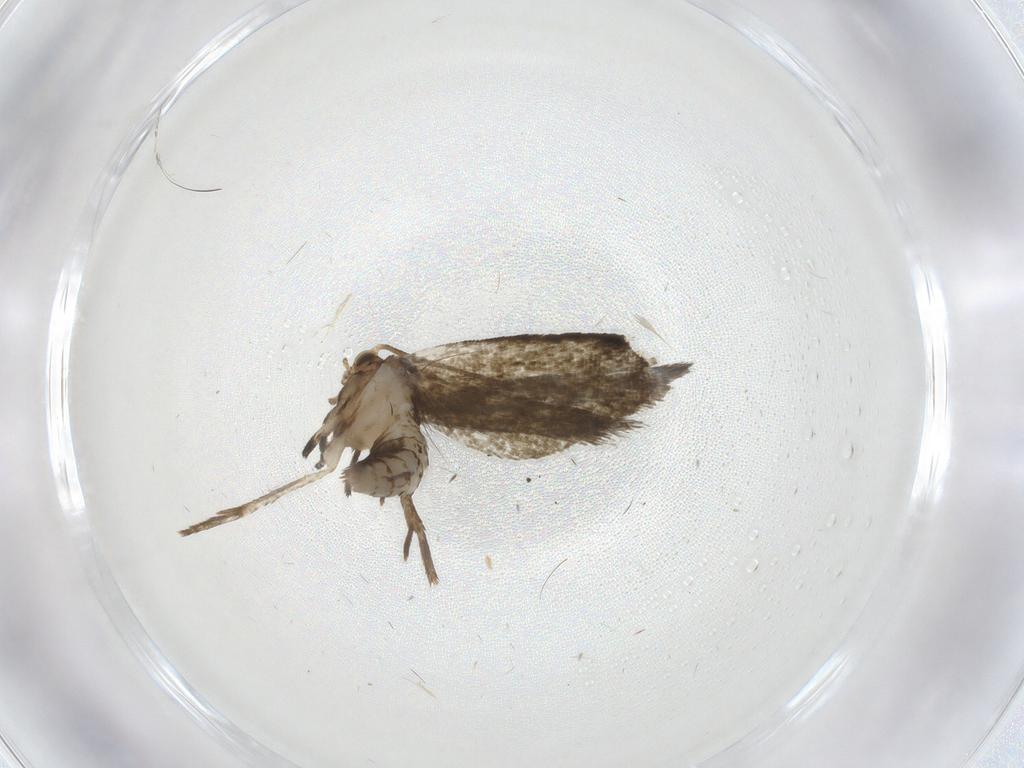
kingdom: Animalia
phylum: Arthropoda
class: Insecta
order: Lepidoptera
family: Tineidae
